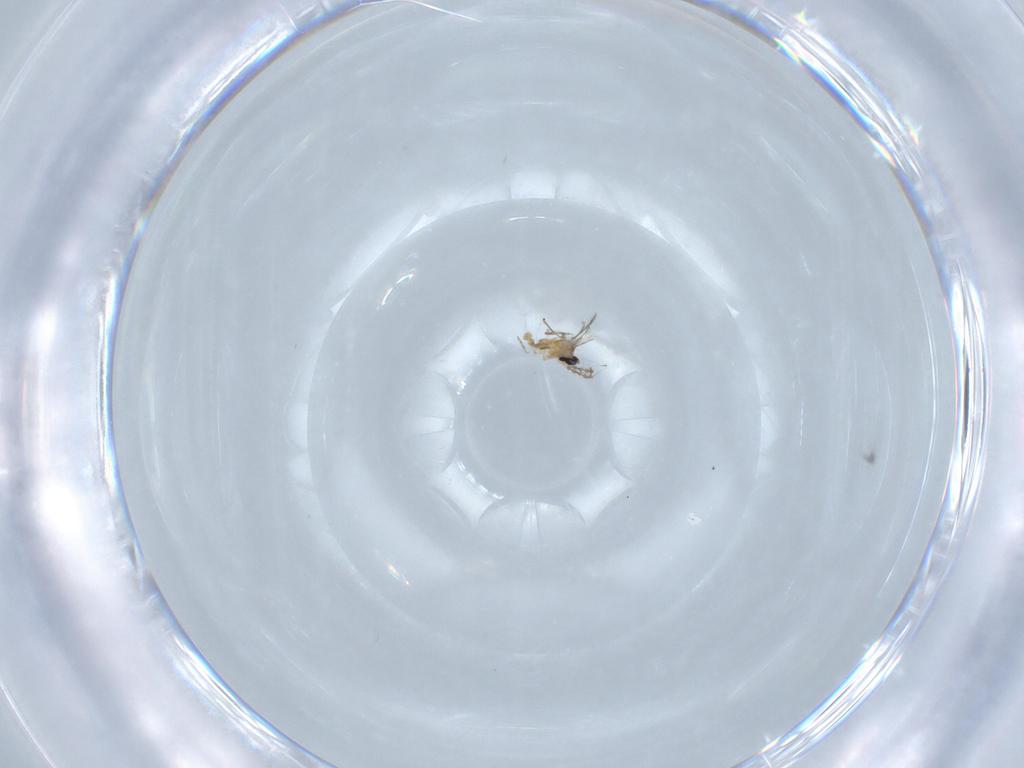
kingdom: Animalia
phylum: Arthropoda
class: Insecta
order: Diptera
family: Chironomidae
